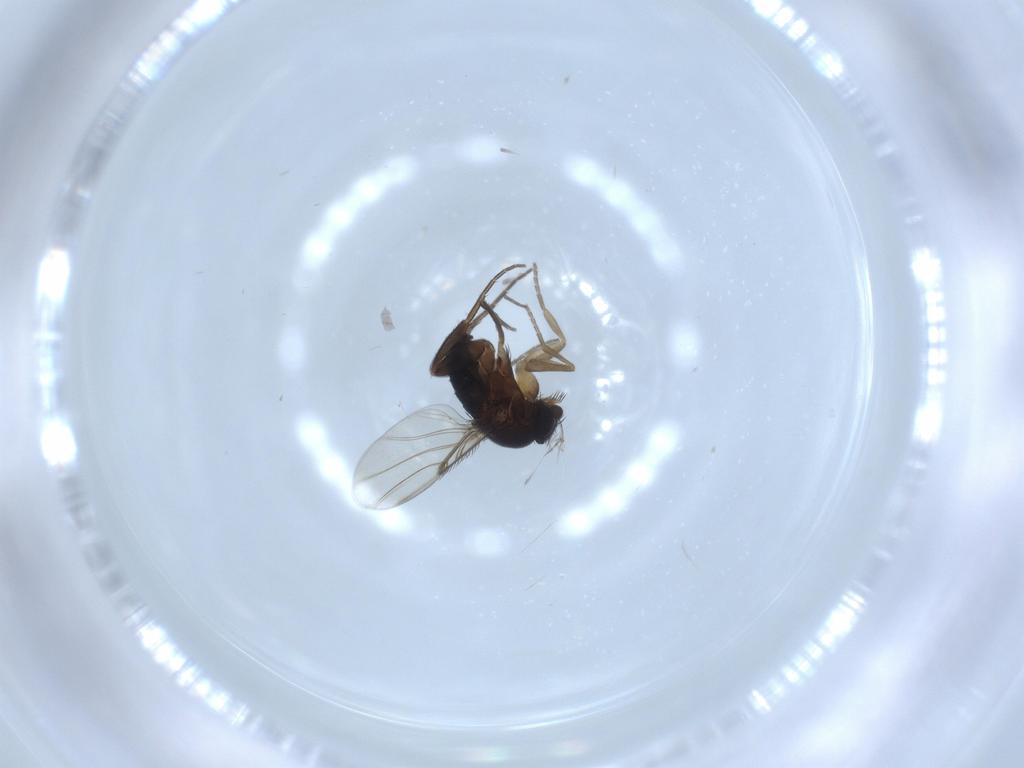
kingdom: Animalia
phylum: Arthropoda
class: Insecta
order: Diptera
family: Phoridae
